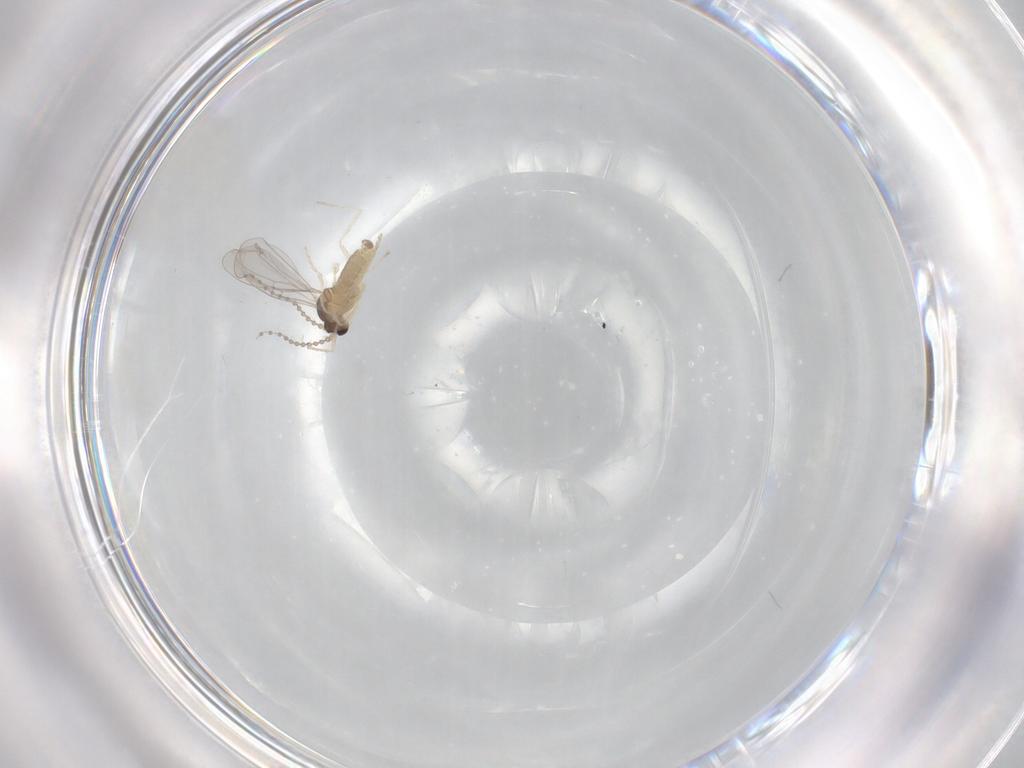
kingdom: Animalia
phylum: Arthropoda
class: Insecta
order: Diptera
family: Cecidomyiidae
